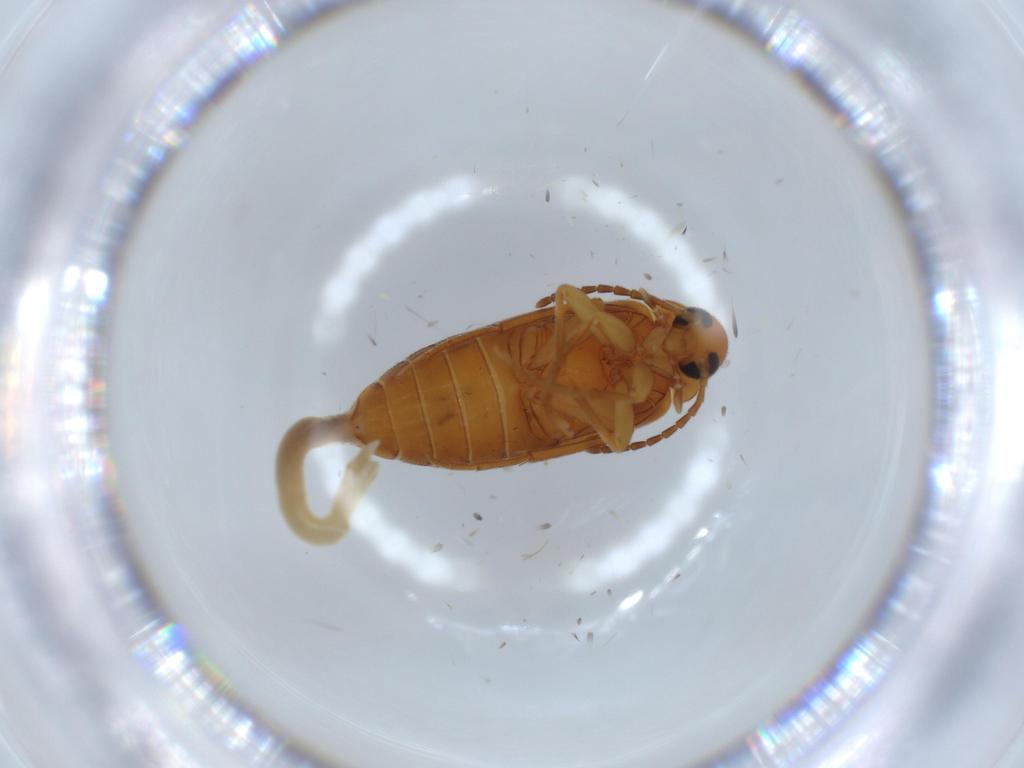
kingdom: Animalia
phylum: Arthropoda
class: Insecta
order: Coleoptera
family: Scraptiidae
